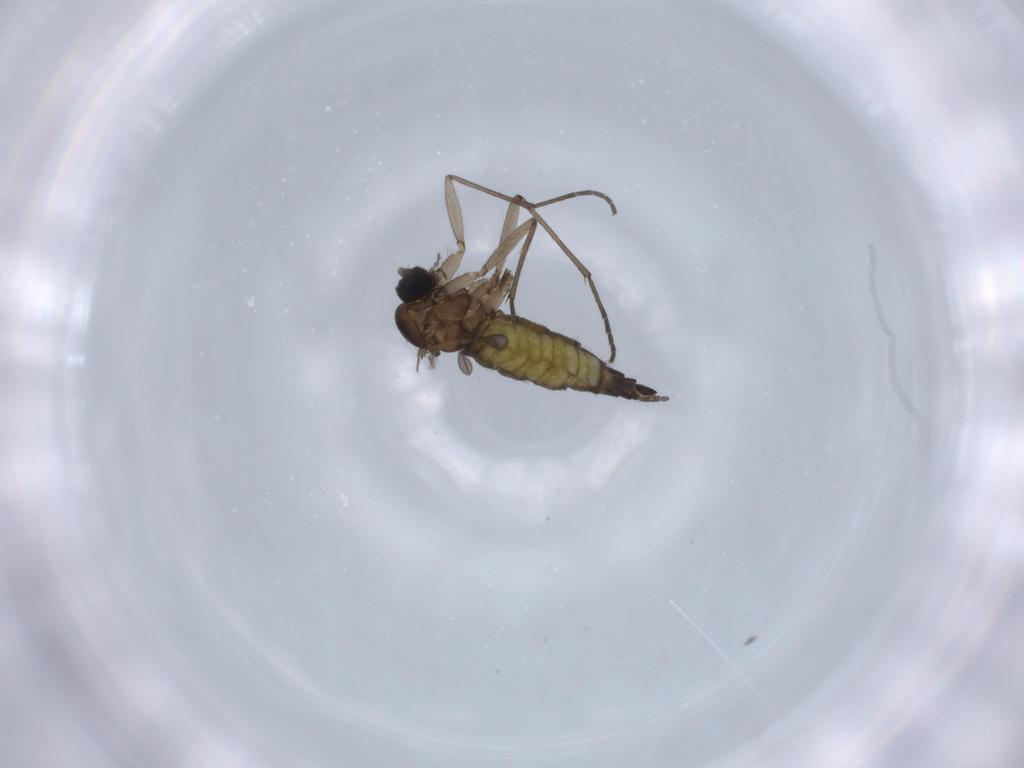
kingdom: Animalia
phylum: Arthropoda
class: Insecta
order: Diptera
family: Sciaridae
